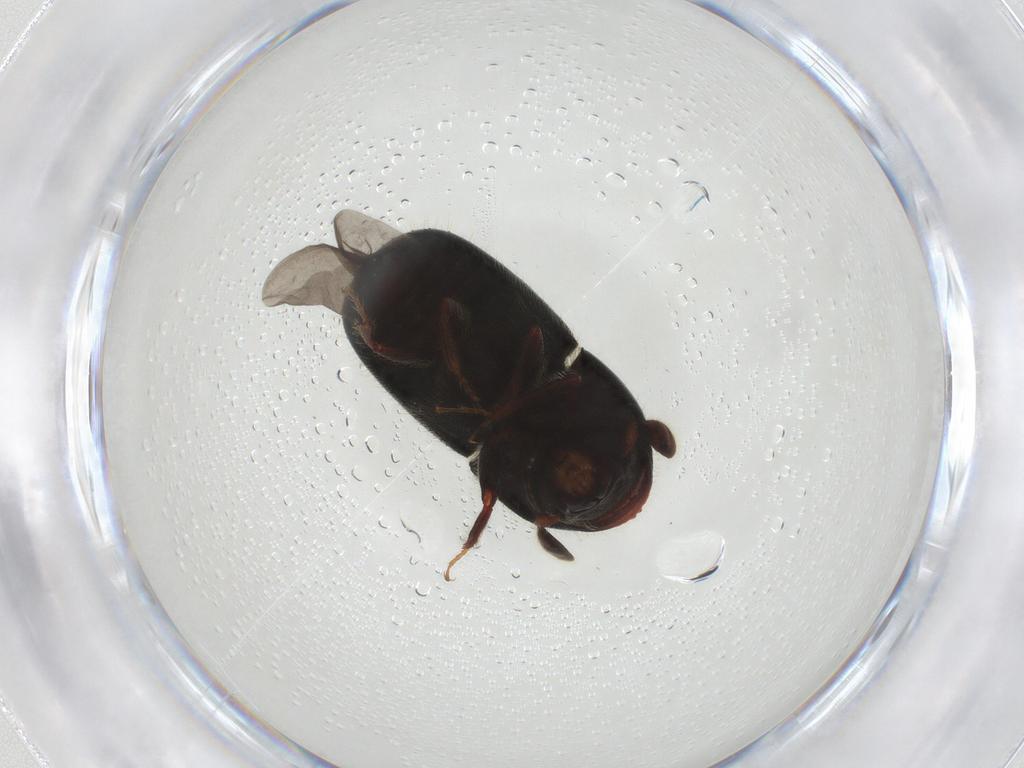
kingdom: Animalia
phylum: Arthropoda
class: Insecta
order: Coleoptera
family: Curculionidae
